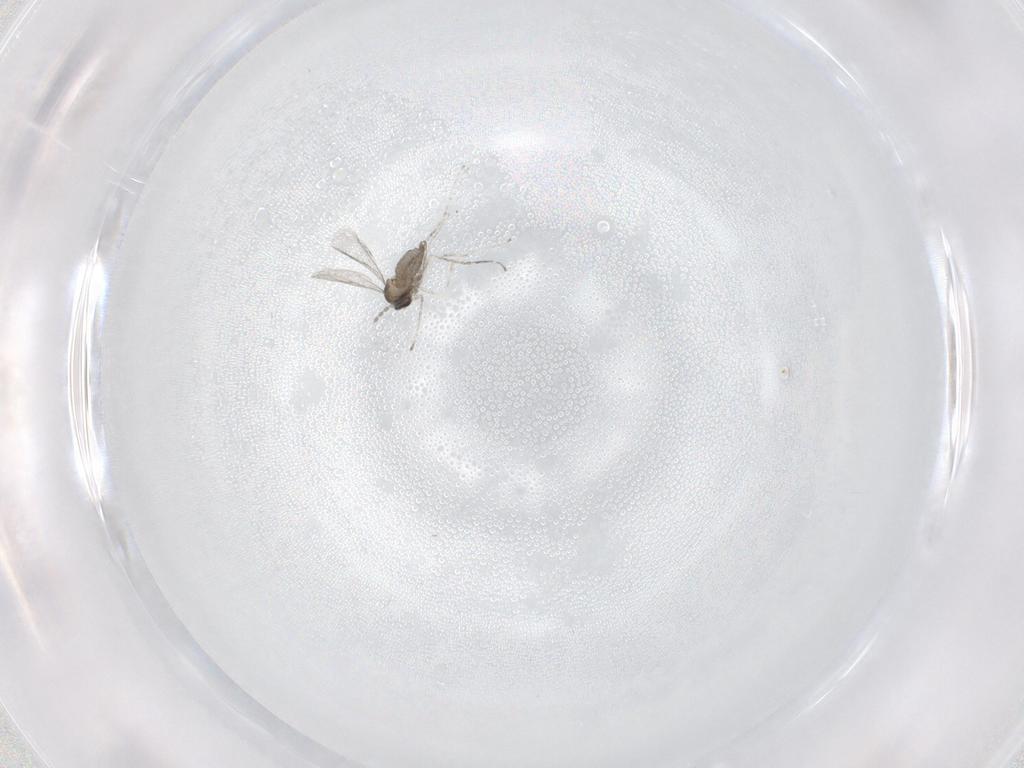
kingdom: Animalia
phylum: Arthropoda
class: Insecta
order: Diptera
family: Cecidomyiidae
